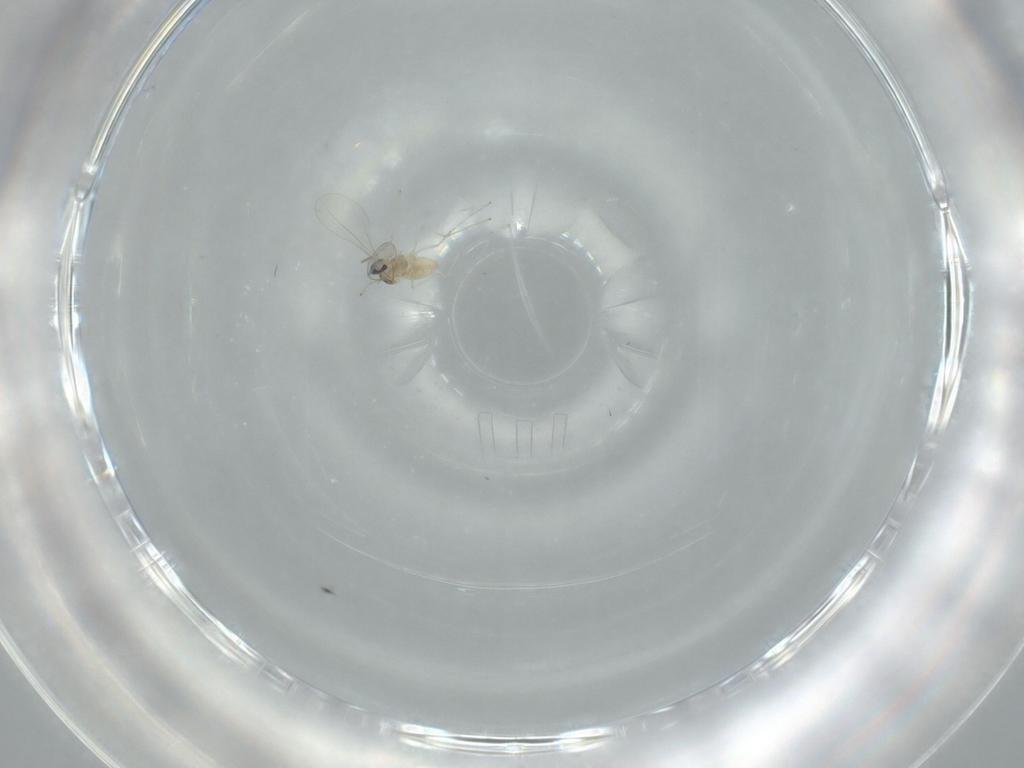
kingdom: Animalia
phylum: Arthropoda
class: Insecta
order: Diptera
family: Cecidomyiidae
